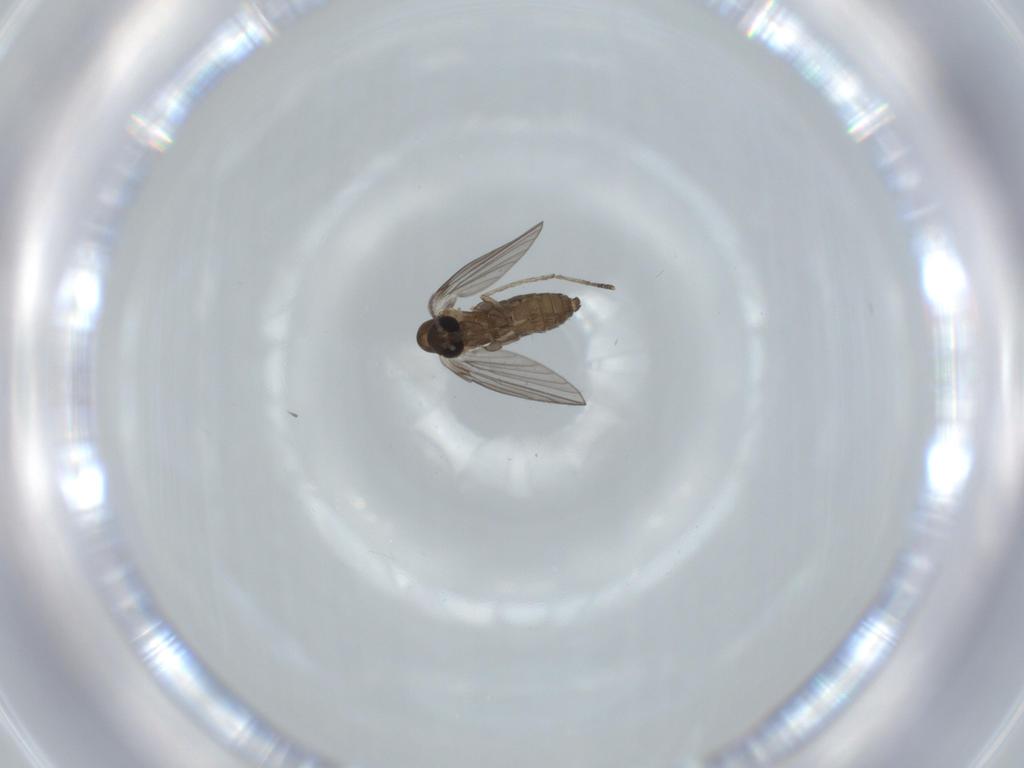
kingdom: Animalia
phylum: Arthropoda
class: Insecta
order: Diptera
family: Psychodidae
